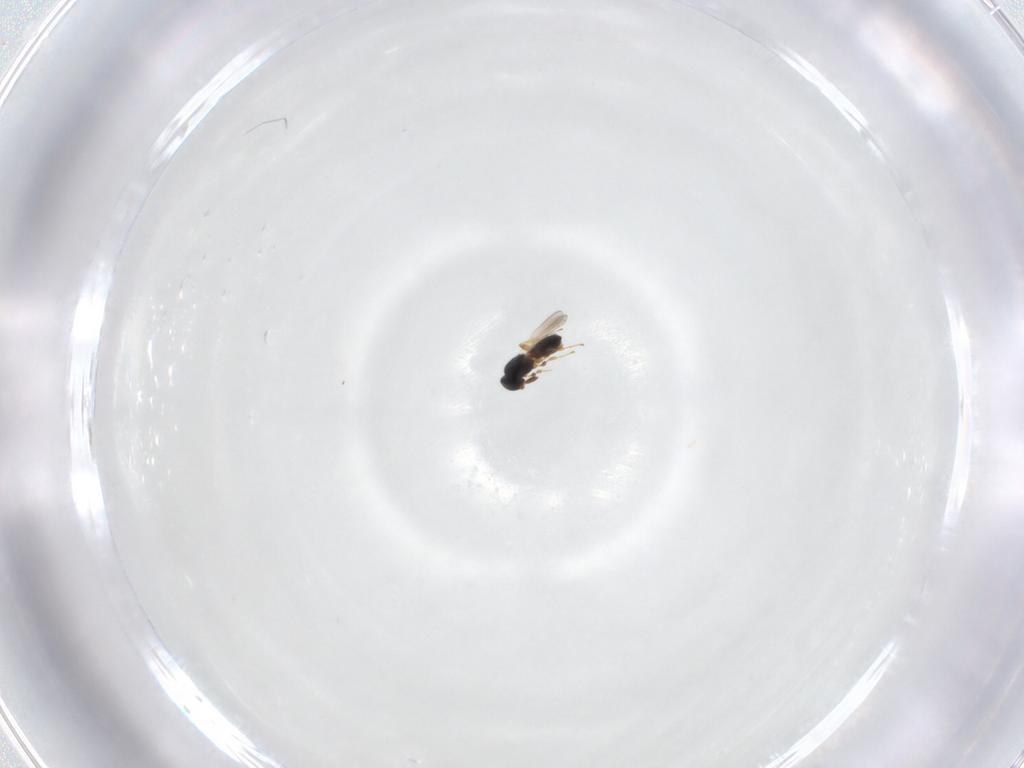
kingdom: Animalia
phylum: Arthropoda
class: Insecta
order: Hymenoptera
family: Platygastridae
